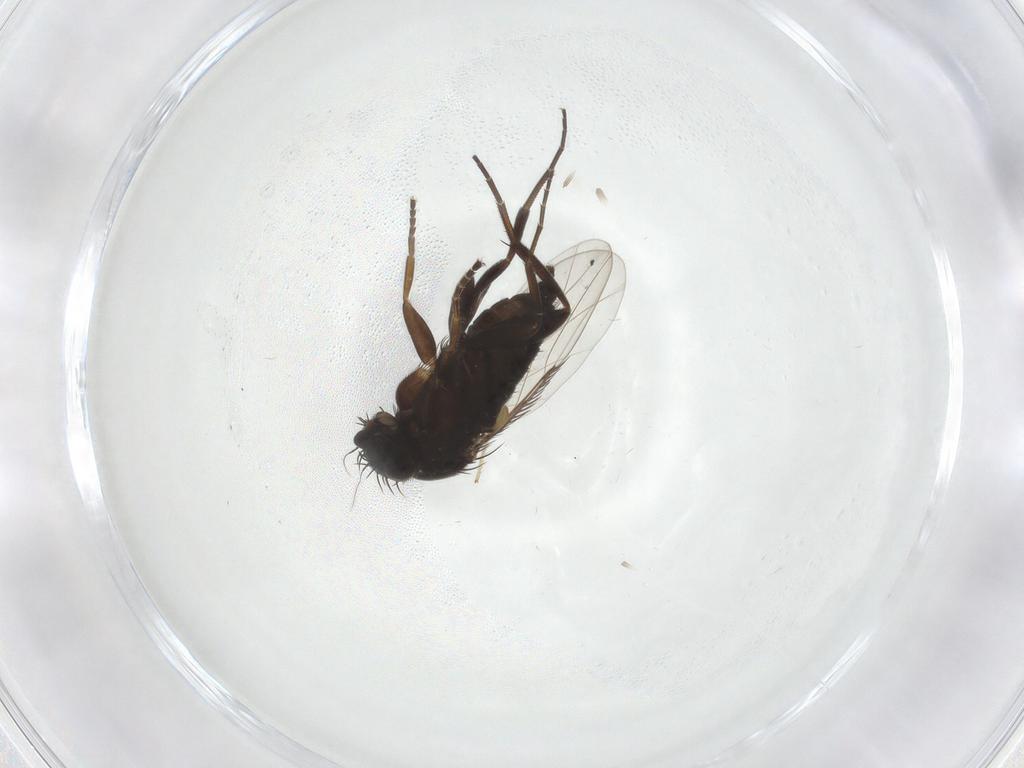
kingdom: Animalia
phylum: Arthropoda
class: Insecta
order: Diptera
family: Phoridae
